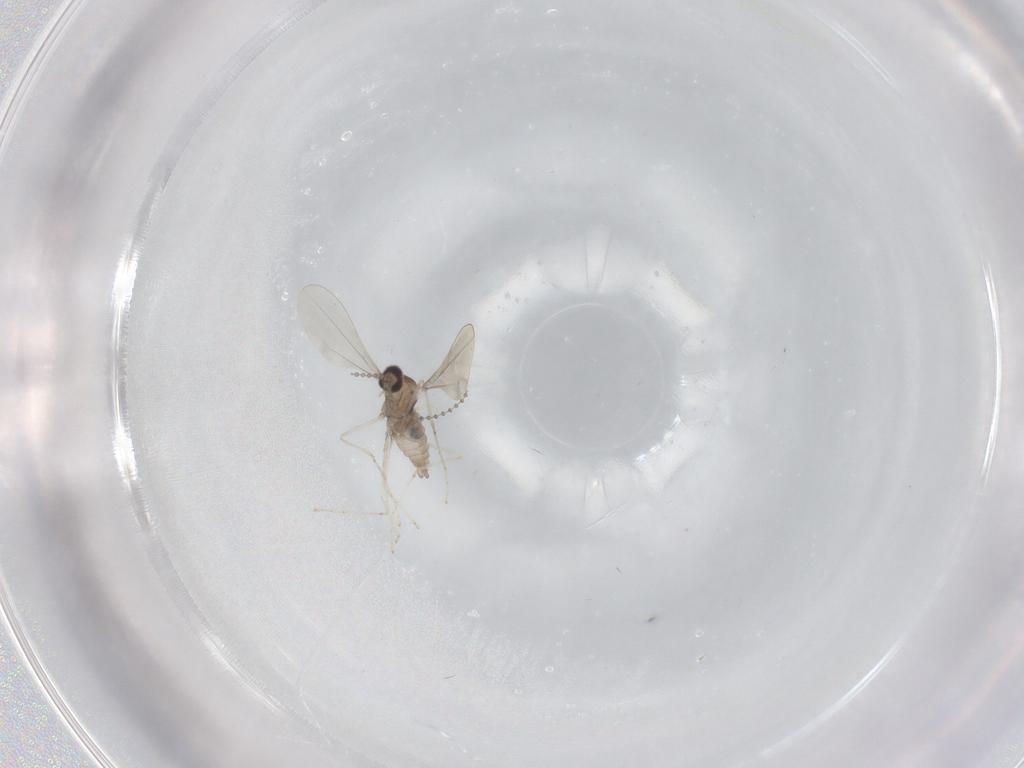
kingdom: Animalia
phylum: Arthropoda
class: Insecta
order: Diptera
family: Cecidomyiidae
